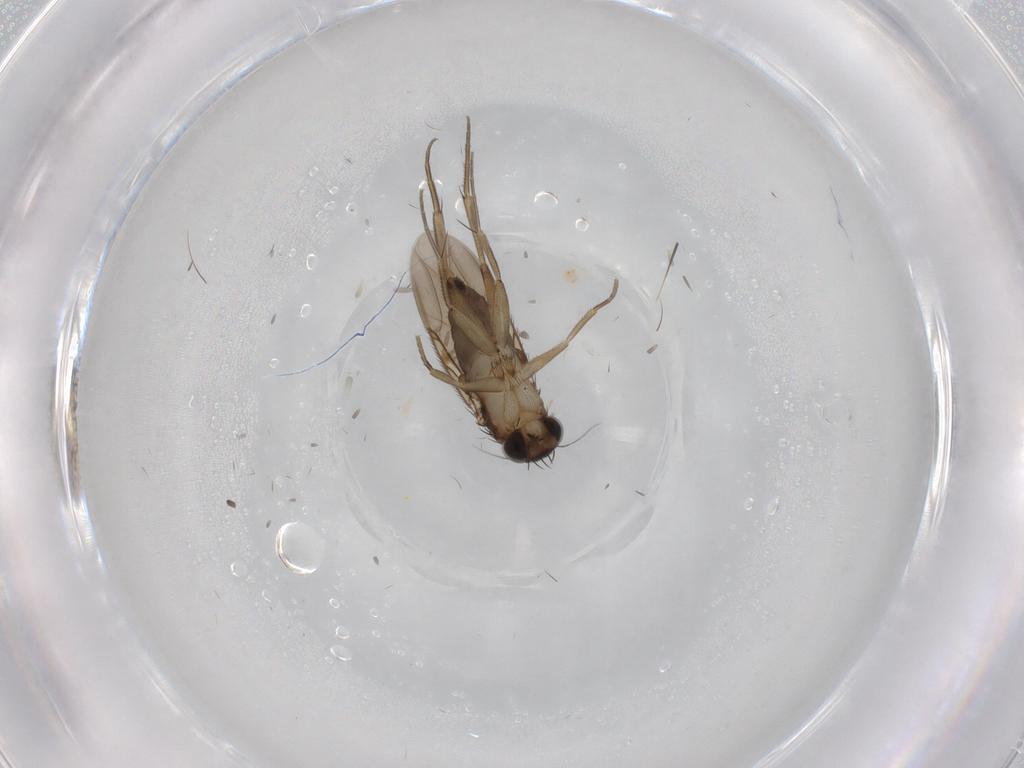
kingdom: Animalia
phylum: Arthropoda
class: Insecta
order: Diptera
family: Phoridae
